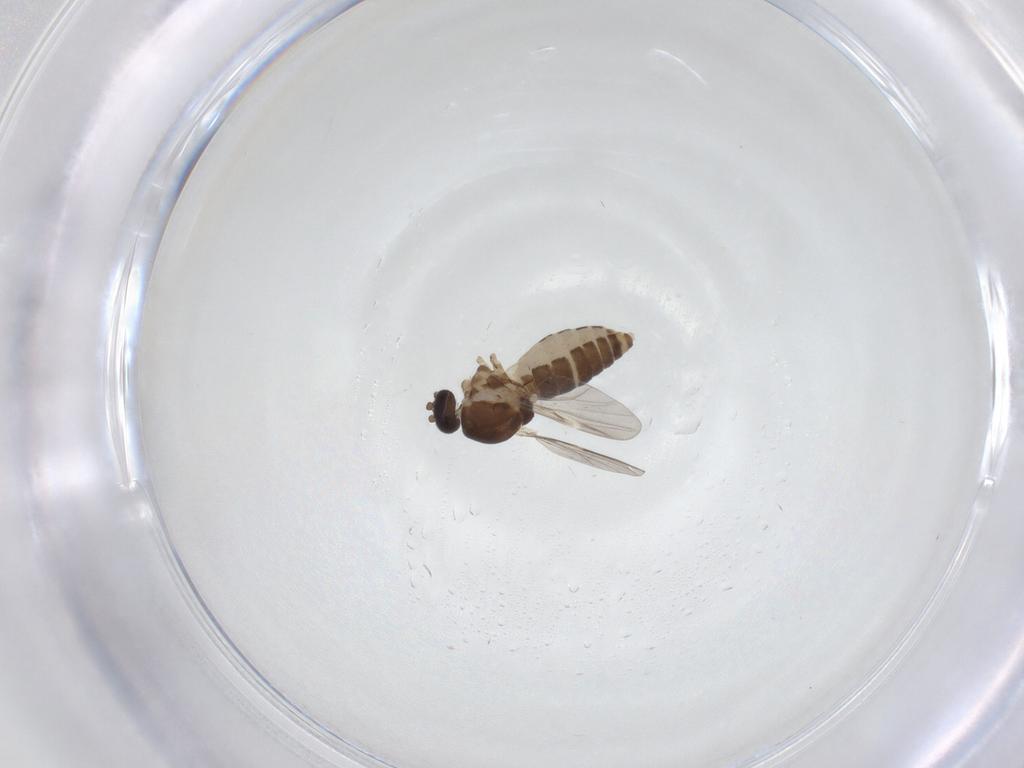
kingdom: Animalia
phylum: Arthropoda
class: Insecta
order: Diptera
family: Ceratopogonidae
